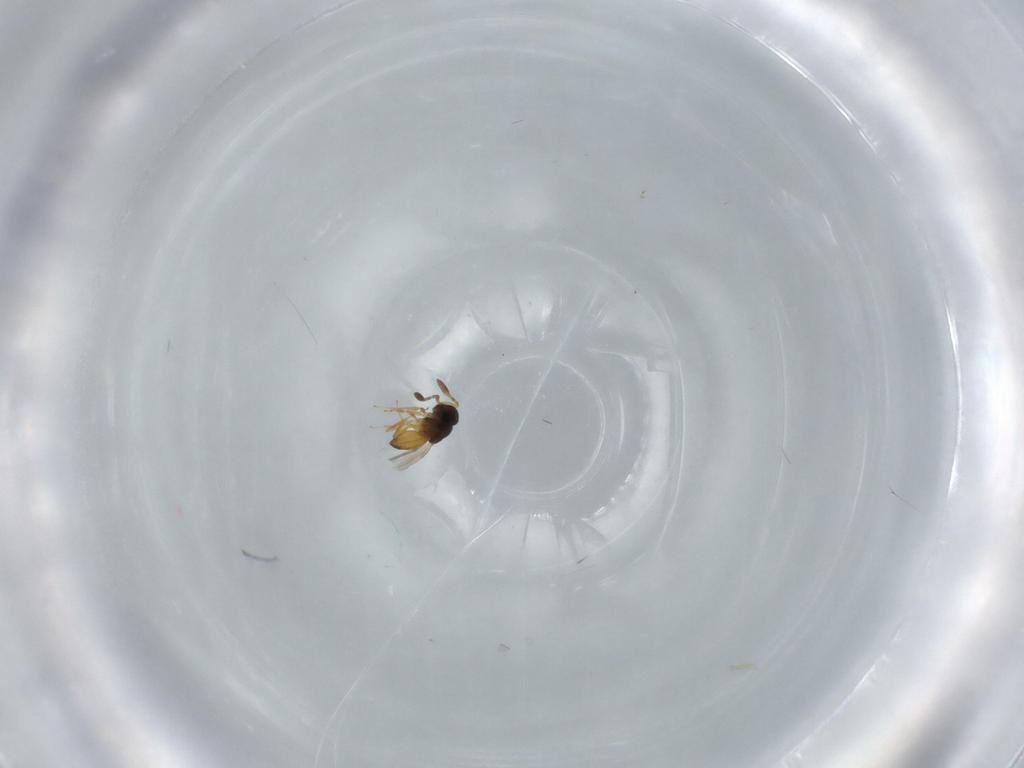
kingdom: Animalia
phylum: Arthropoda
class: Insecta
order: Hymenoptera
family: Scelionidae
